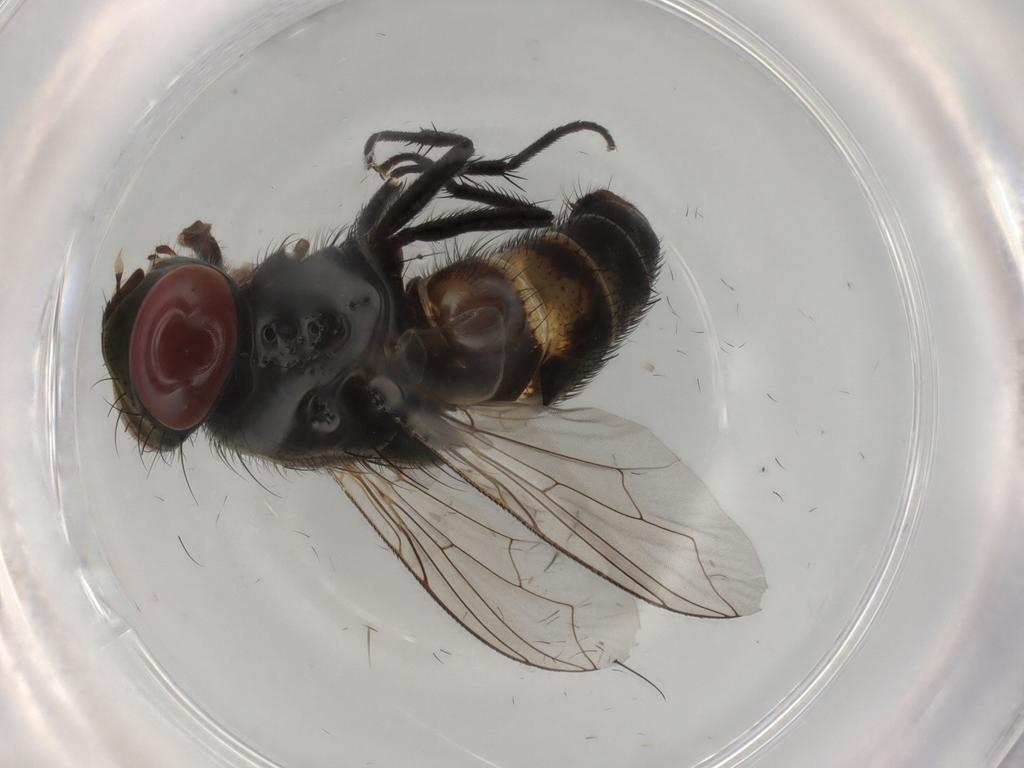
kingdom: Animalia
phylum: Arthropoda
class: Insecta
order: Diptera
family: Sarcophagidae
